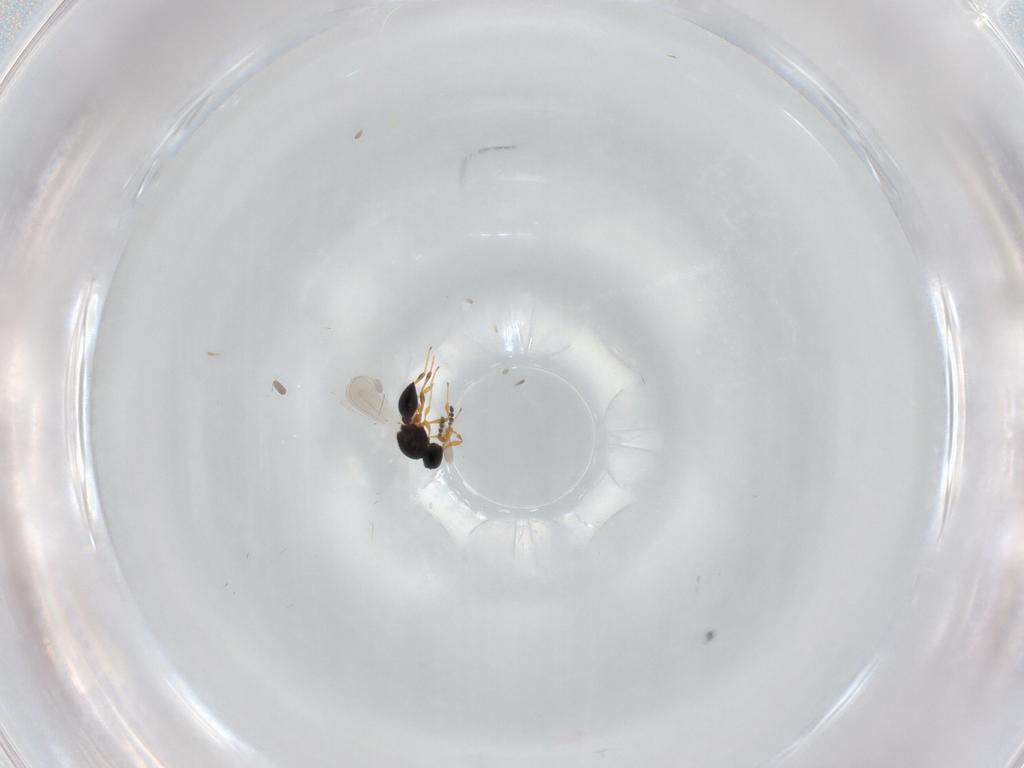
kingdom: Animalia
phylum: Arthropoda
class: Insecta
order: Hymenoptera
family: Platygastridae
